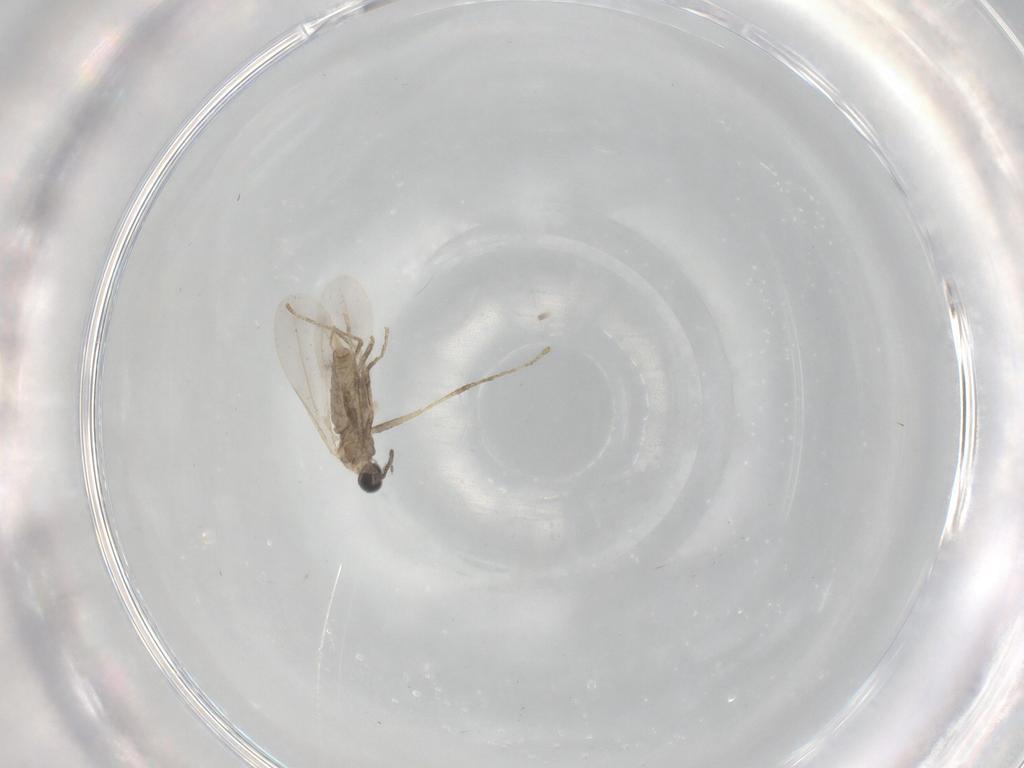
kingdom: Animalia
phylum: Arthropoda
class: Insecta
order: Diptera
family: Cecidomyiidae
